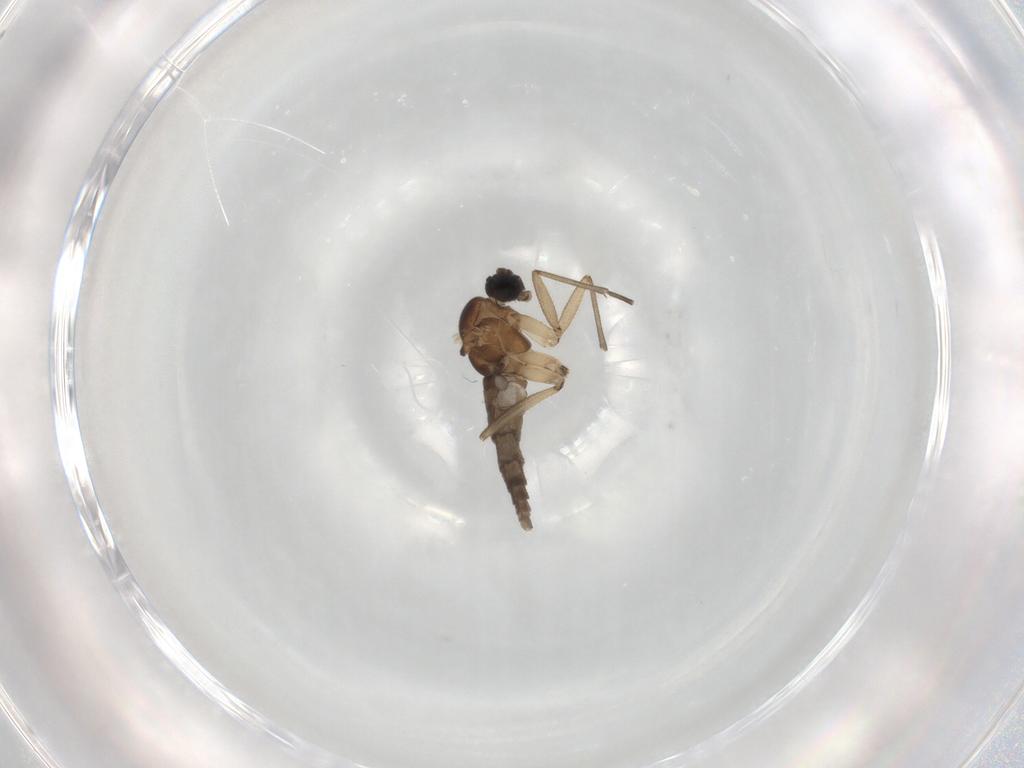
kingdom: Animalia
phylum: Arthropoda
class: Insecta
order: Diptera
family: Sciaridae
